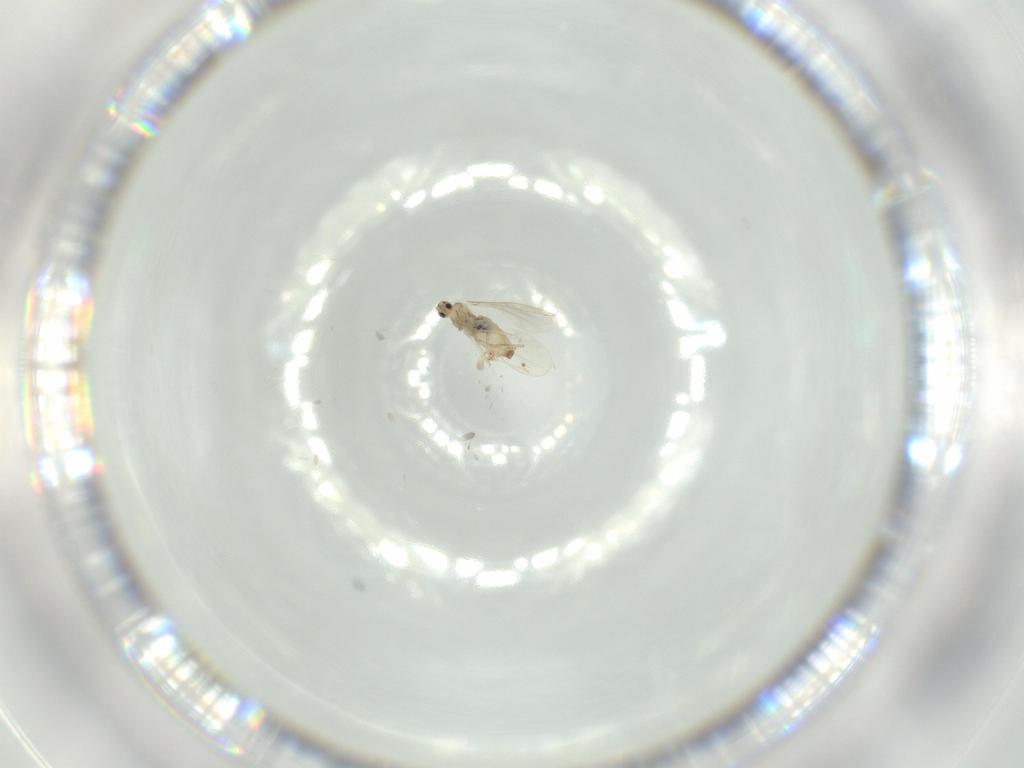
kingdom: Animalia
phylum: Arthropoda
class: Insecta
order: Diptera
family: Cecidomyiidae
